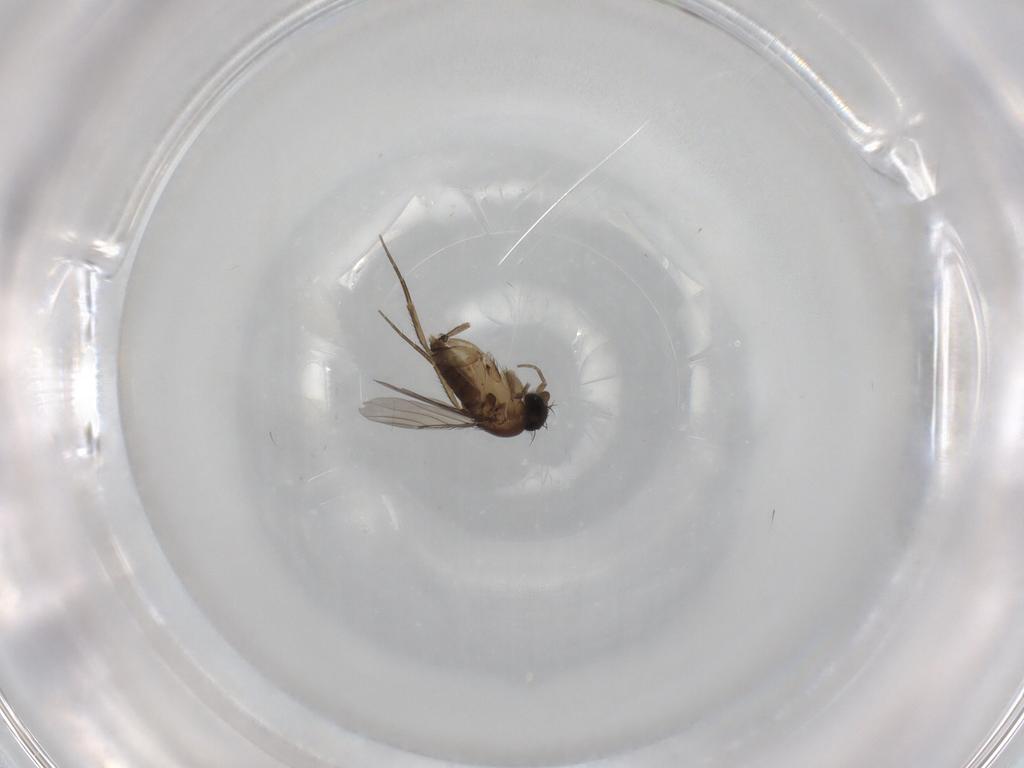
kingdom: Animalia
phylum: Arthropoda
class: Insecta
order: Diptera
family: Phoridae
